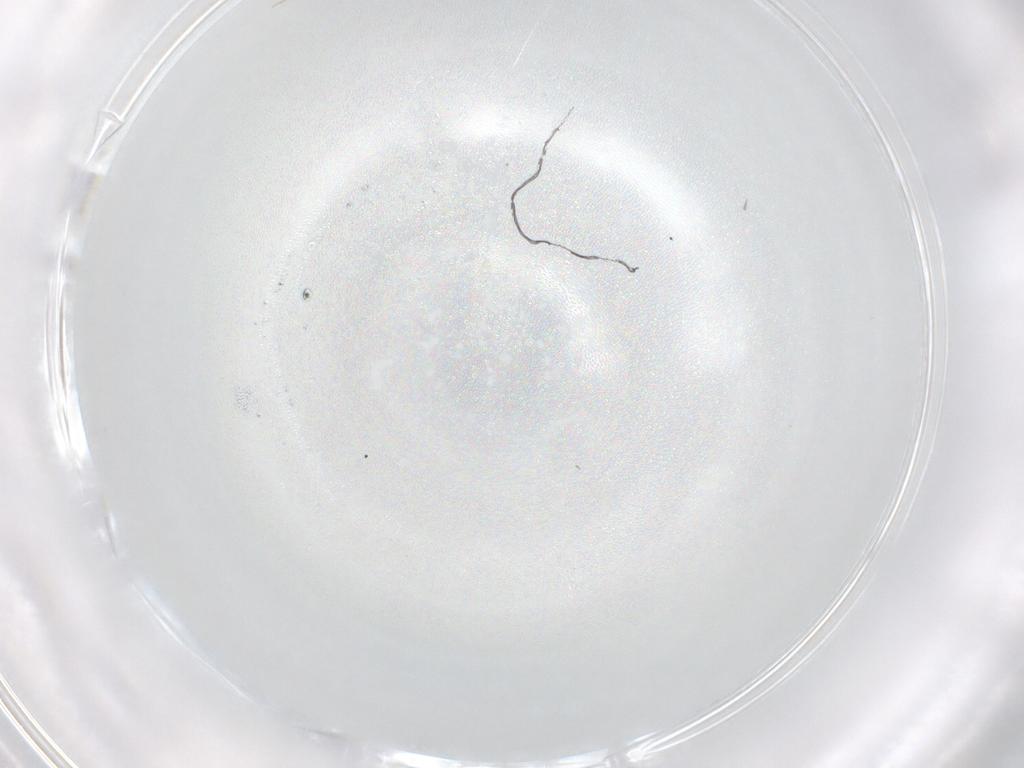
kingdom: Animalia
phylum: Arthropoda
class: Insecta
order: Diptera
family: Cecidomyiidae
